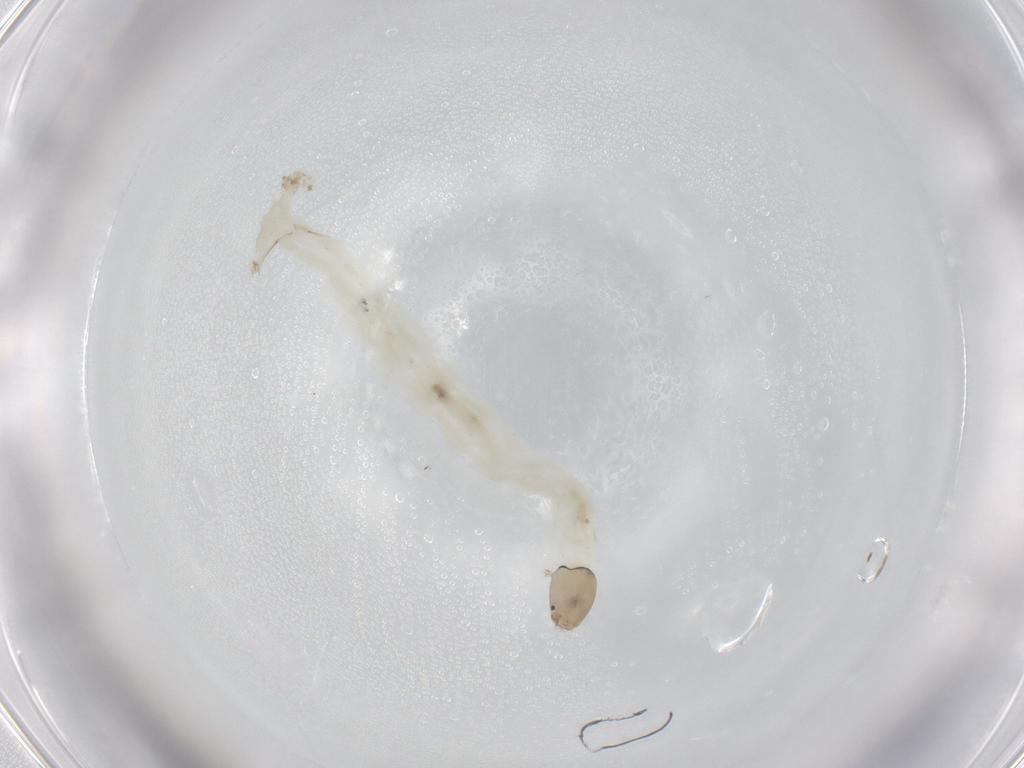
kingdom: Animalia
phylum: Arthropoda
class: Insecta
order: Diptera
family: Chironomidae
